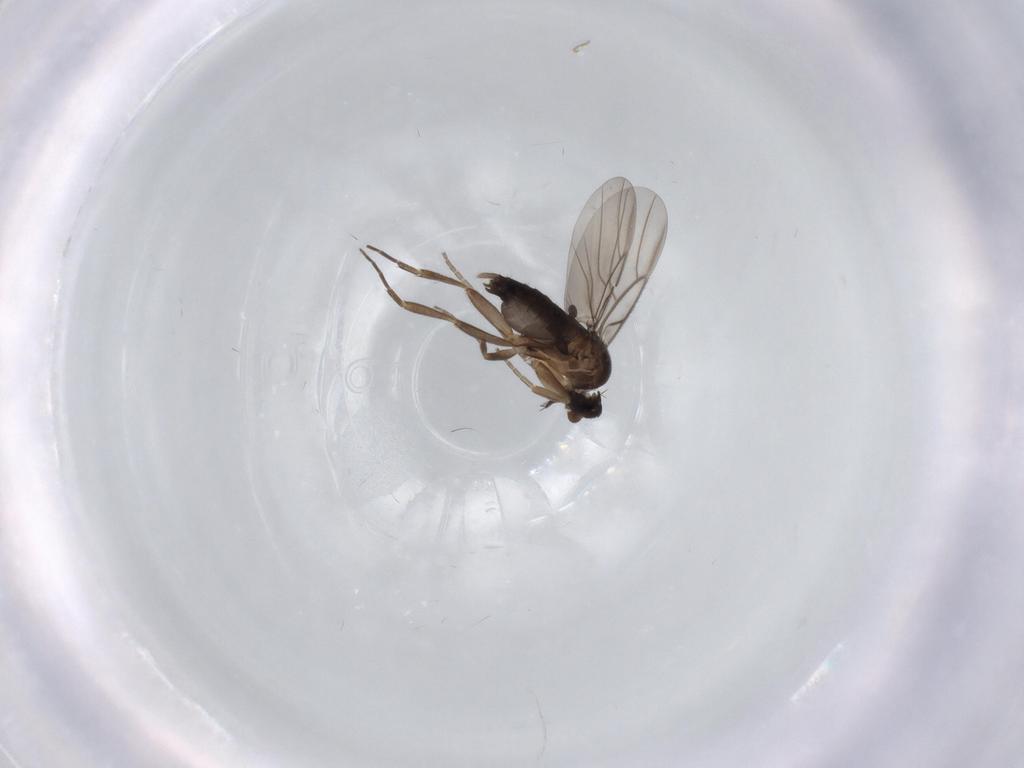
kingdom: Animalia
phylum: Arthropoda
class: Insecta
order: Diptera
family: Phoridae
